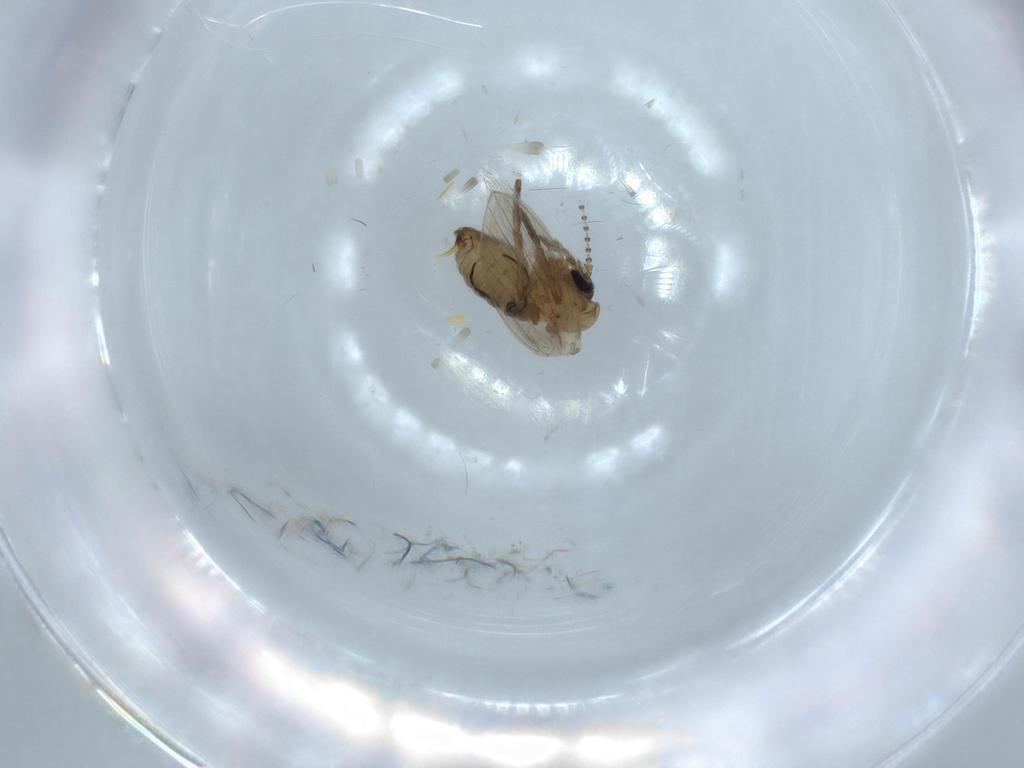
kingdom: Animalia
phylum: Arthropoda
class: Insecta
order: Diptera
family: Psychodidae
